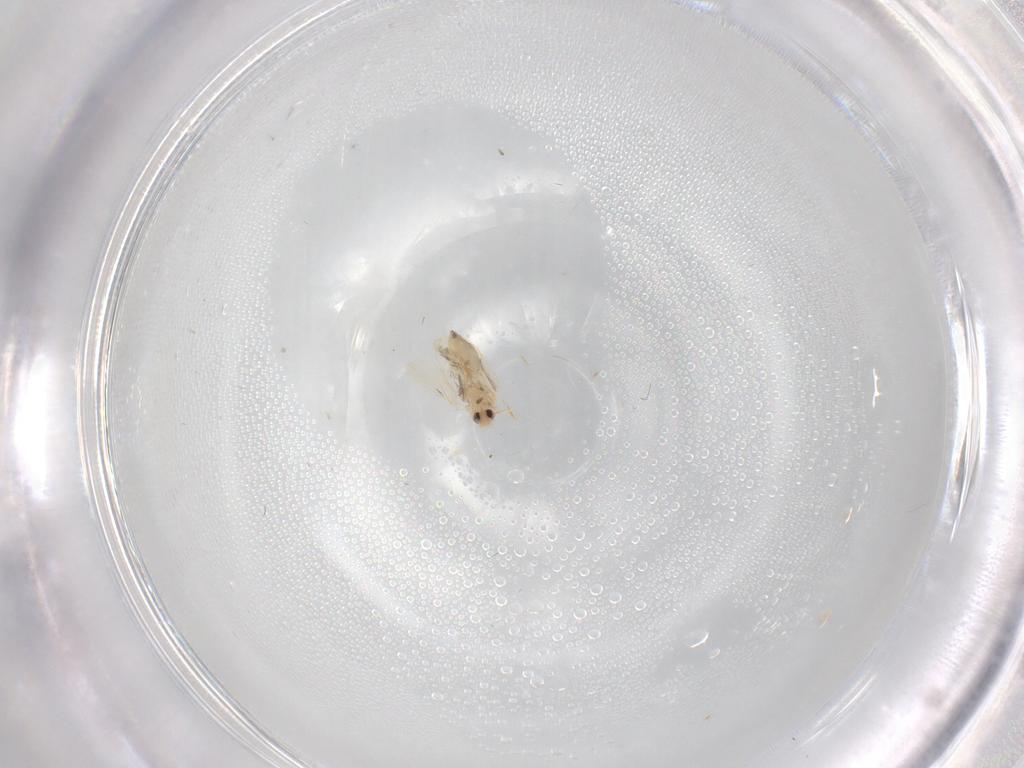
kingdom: Animalia
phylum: Arthropoda
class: Insecta
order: Hemiptera
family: Aleyrodidae
